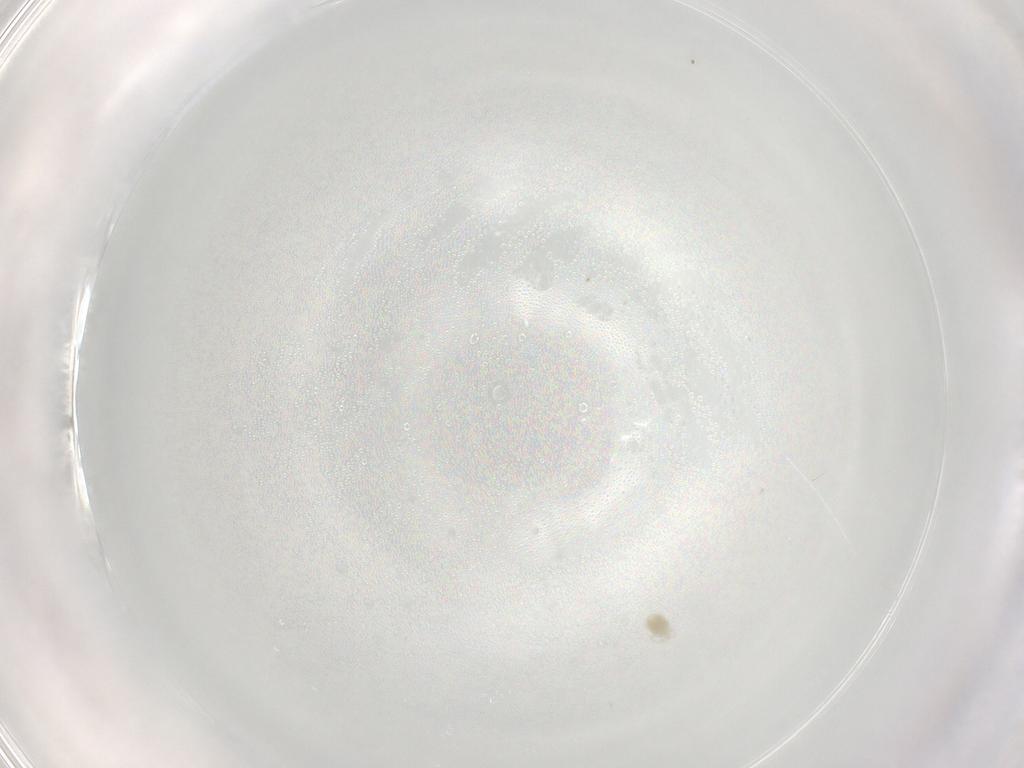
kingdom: Animalia
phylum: Arthropoda
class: Arachnida
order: Trombidiformes
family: Eupodidae
